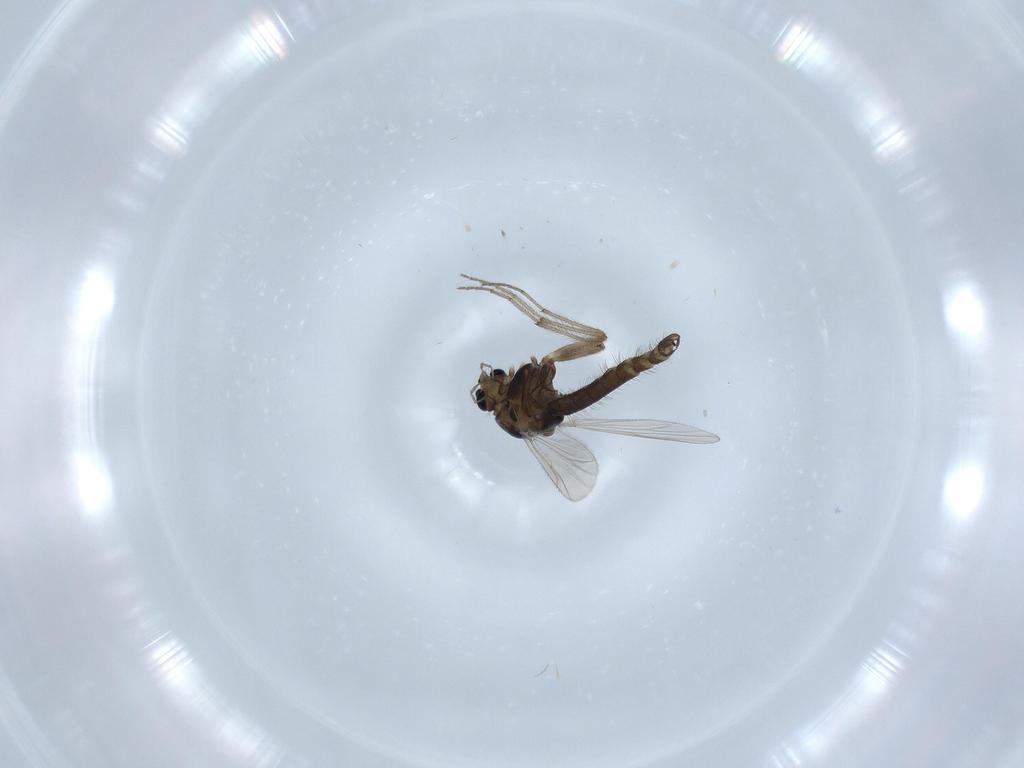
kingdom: Animalia
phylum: Arthropoda
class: Insecta
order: Diptera
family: Chironomidae
